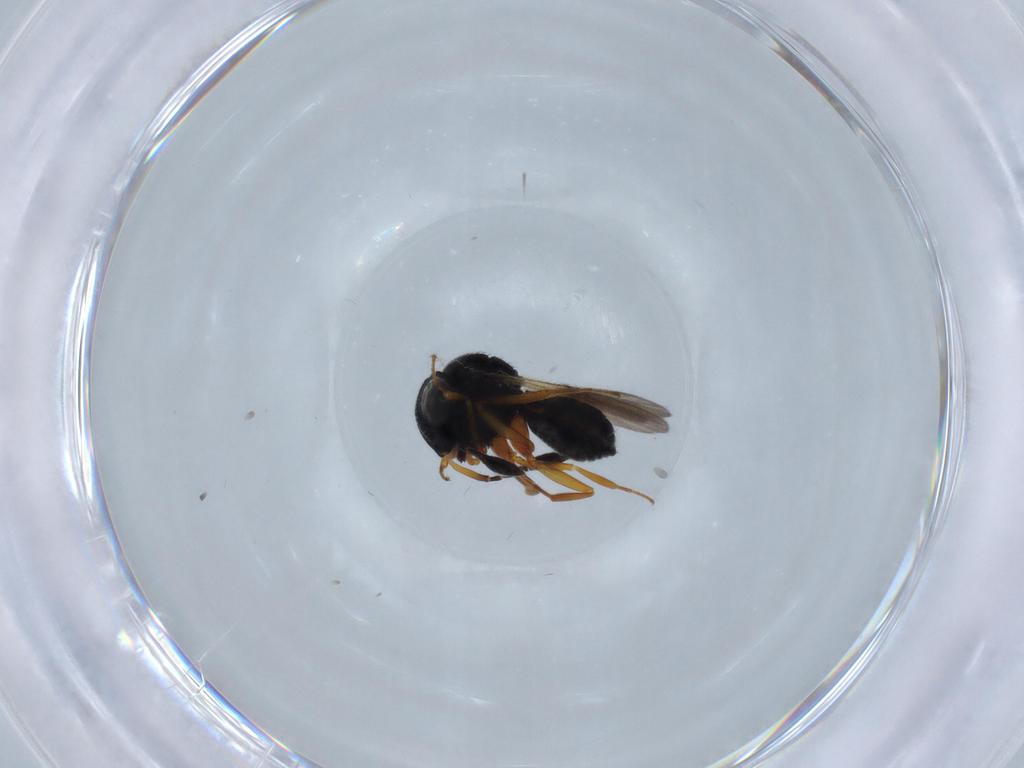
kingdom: Animalia
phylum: Arthropoda
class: Insecta
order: Hymenoptera
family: Scelionidae
